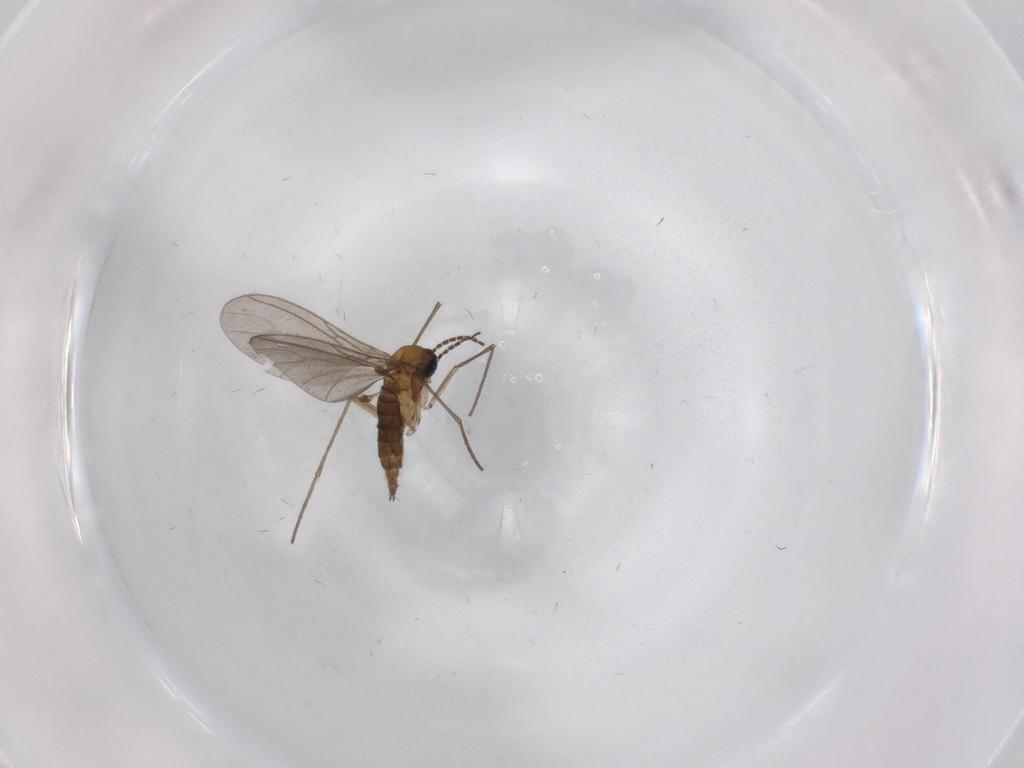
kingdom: Animalia
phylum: Arthropoda
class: Insecta
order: Diptera
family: Sciaridae
